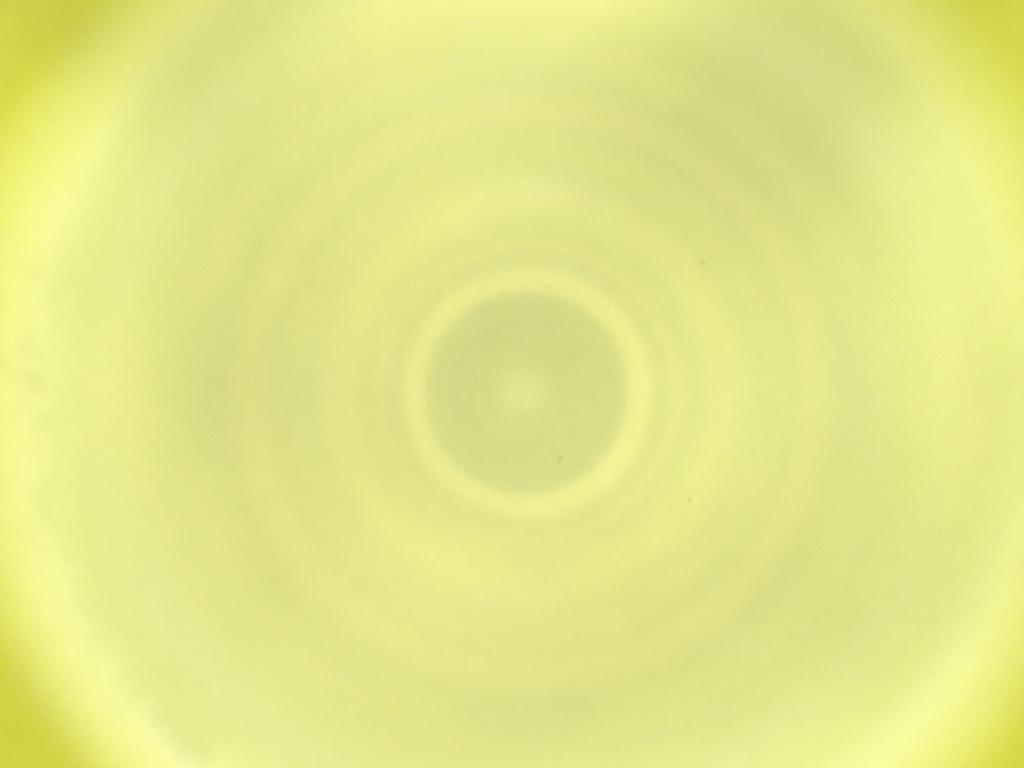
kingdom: Animalia
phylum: Arthropoda
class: Insecta
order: Diptera
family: Cecidomyiidae
